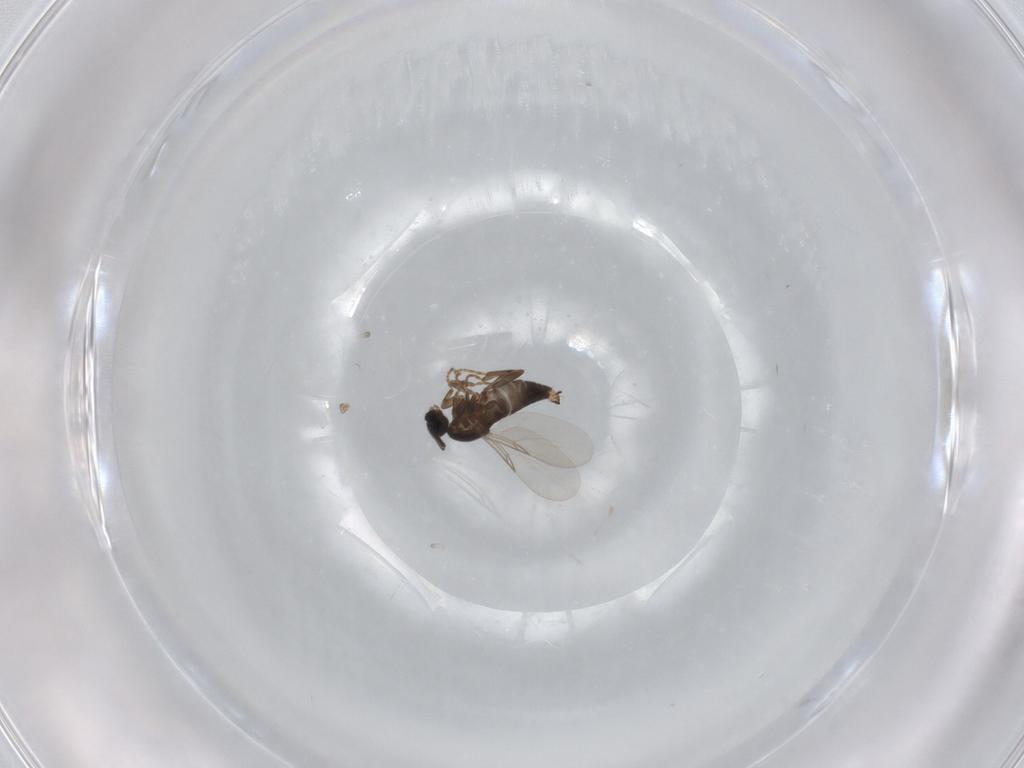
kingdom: Animalia
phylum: Arthropoda
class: Insecta
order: Diptera
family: Scatopsidae
